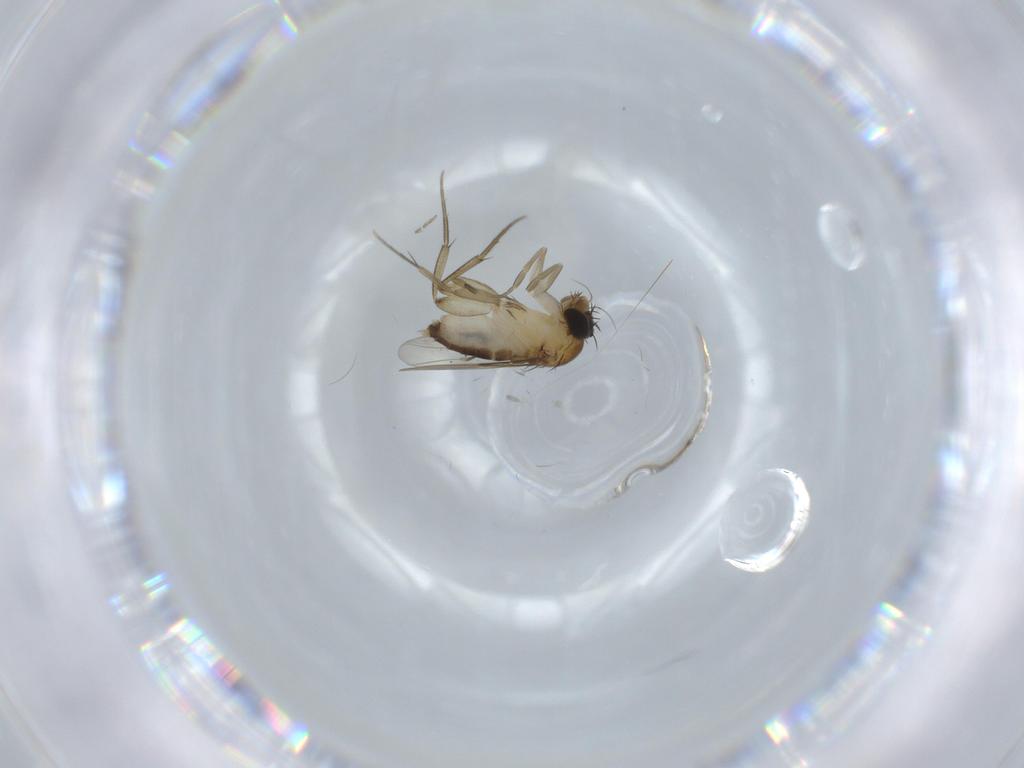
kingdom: Animalia
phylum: Arthropoda
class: Insecta
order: Diptera
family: Phoridae
